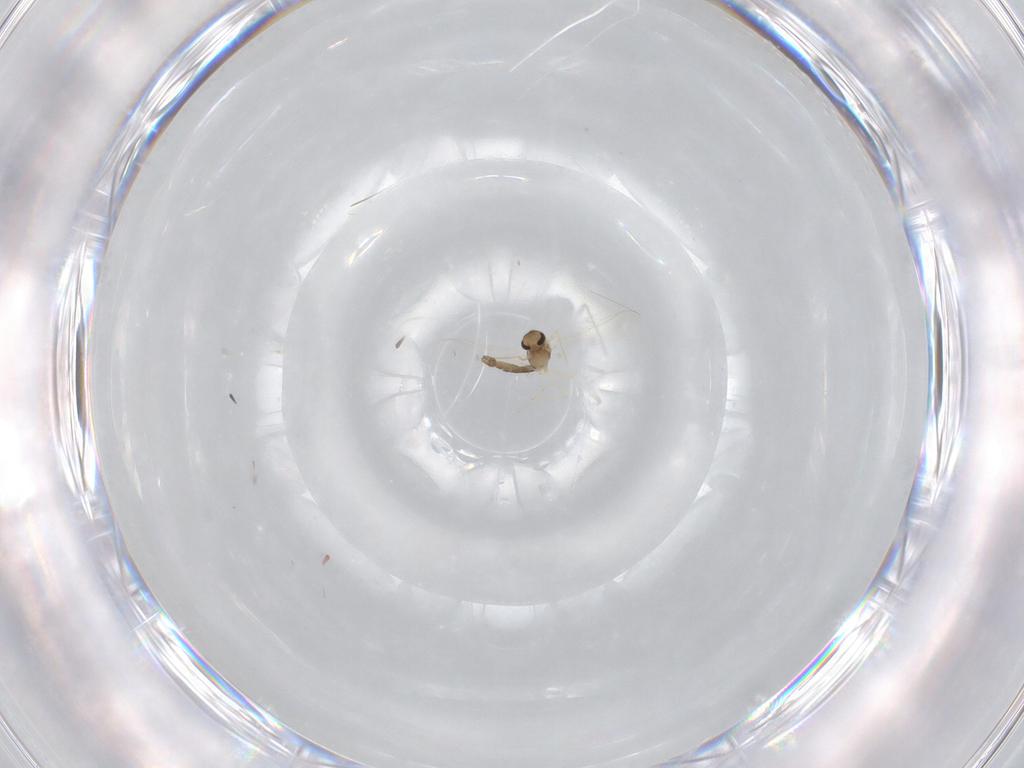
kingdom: Animalia
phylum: Arthropoda
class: Insecta
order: Diptera
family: Chironomidae
